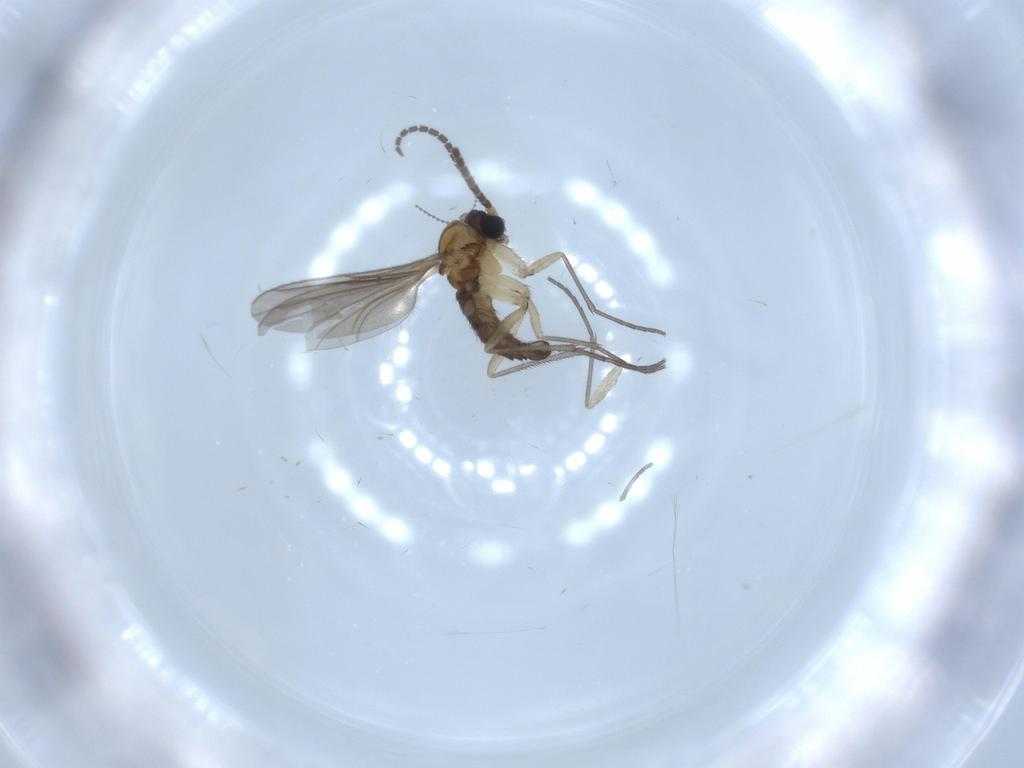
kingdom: Animalia
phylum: Arthropoda
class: Insecta
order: Diptera
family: Sciaridae
